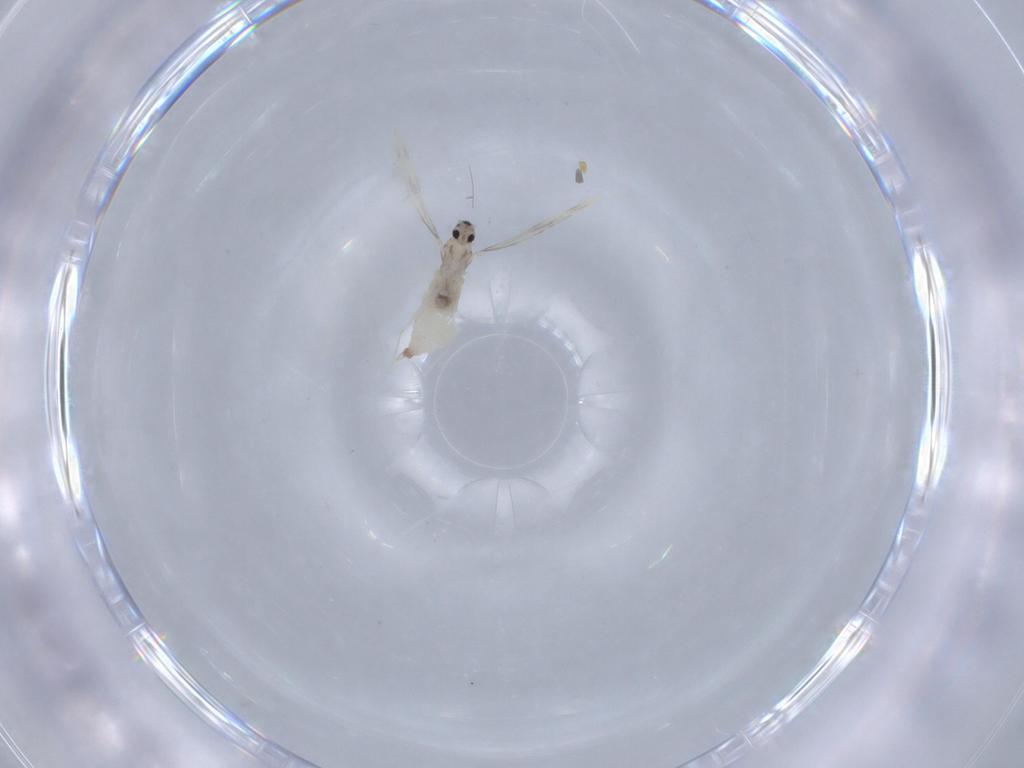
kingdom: Animalia
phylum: Arthropoda
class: Insecta
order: Diptera
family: Cecidomyiidae
